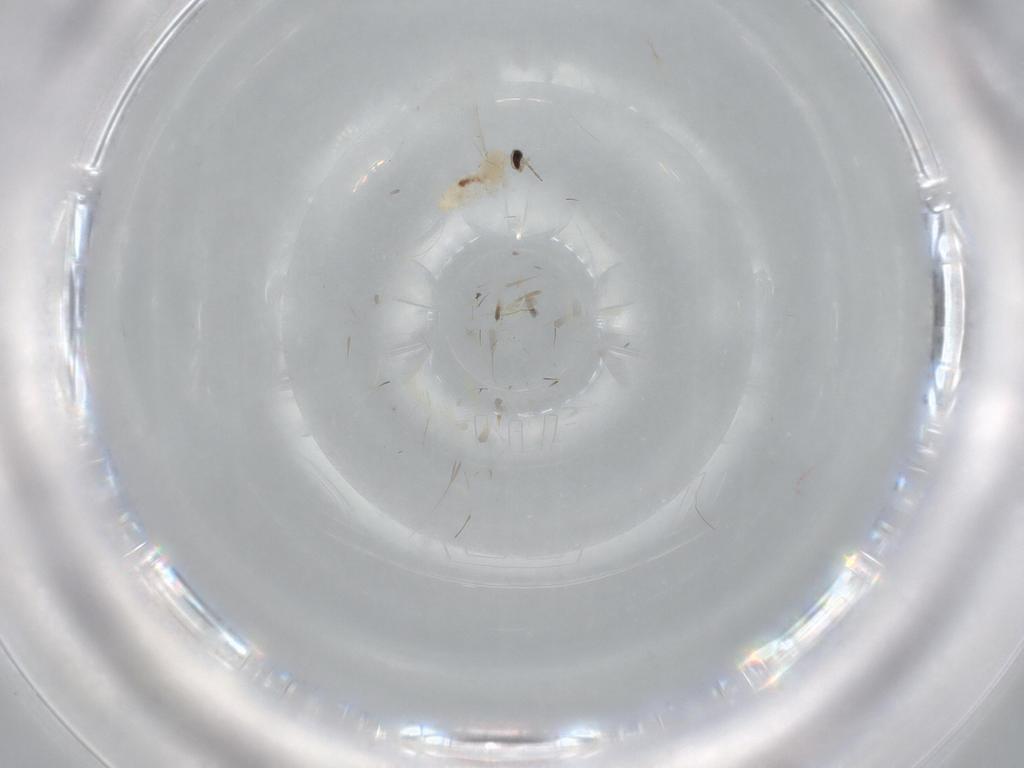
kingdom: Animalia
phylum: Arthropoda
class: Insecta
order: Diptera
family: Cecidomyiidae
